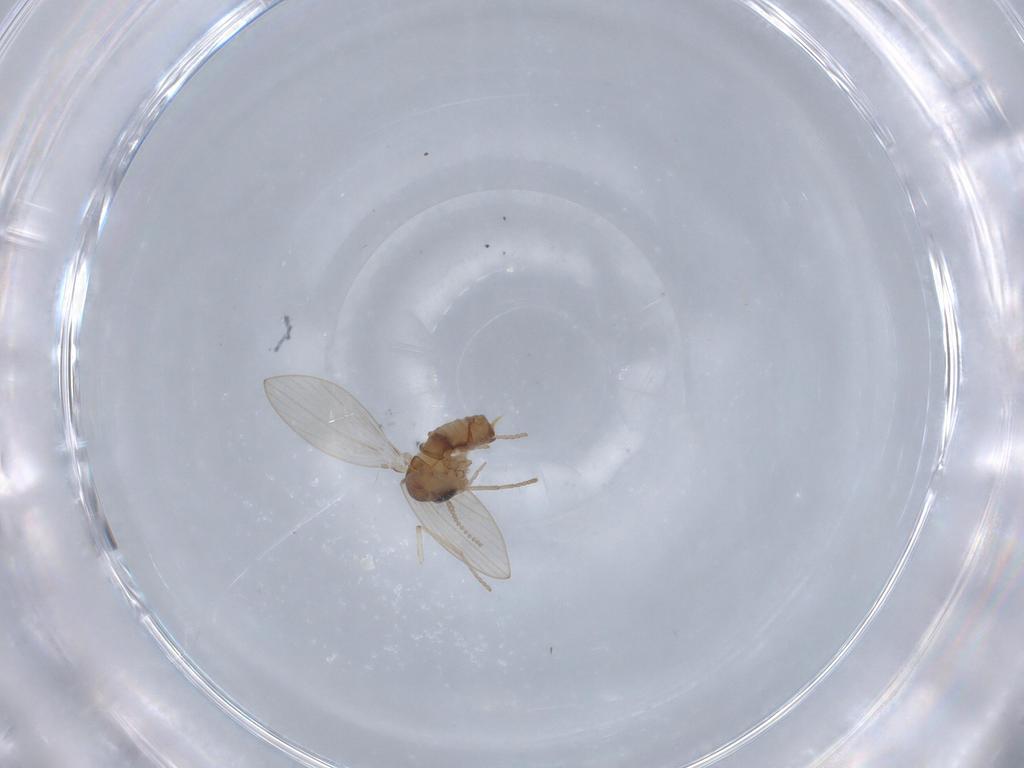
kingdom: Animalia
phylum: Arthropoda
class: Insecta
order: Diptera
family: Psychodidae
